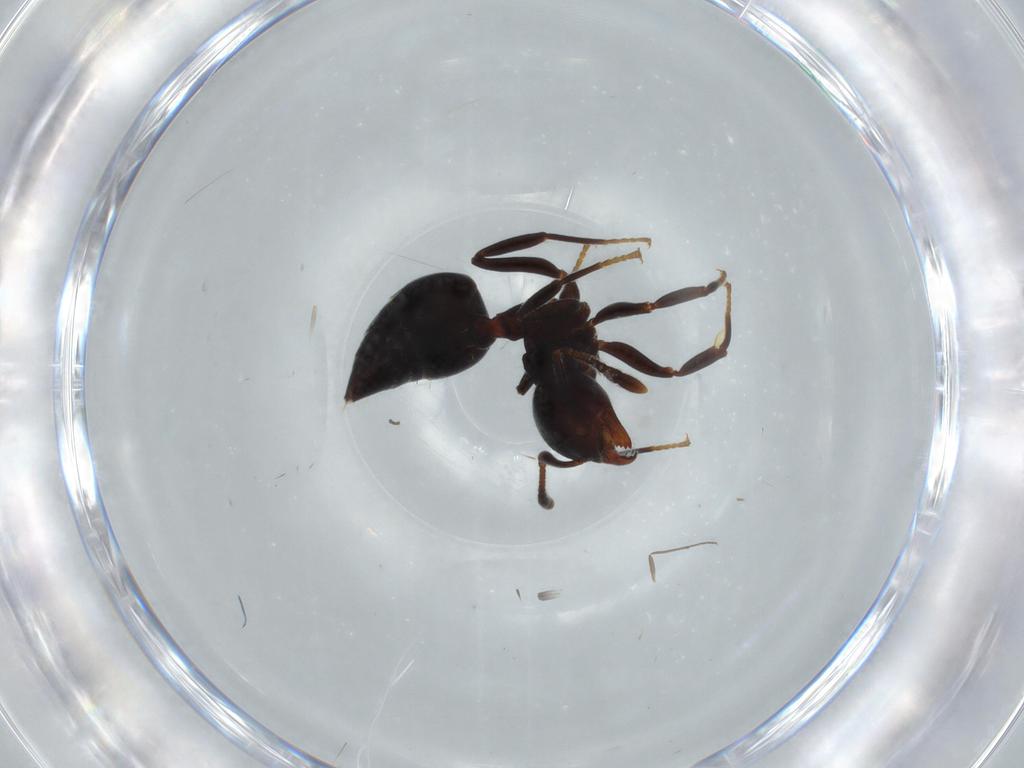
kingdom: Animalia
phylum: Arthropoda
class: Insecta
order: Hymenoptera
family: Formicidae
